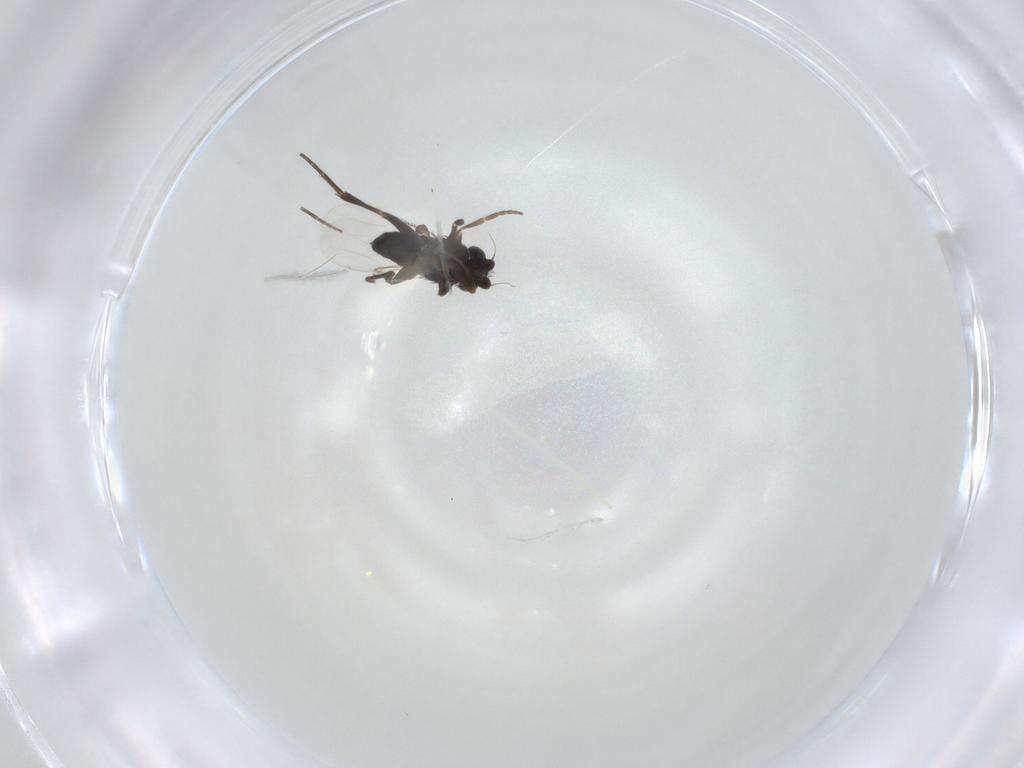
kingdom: Animalia
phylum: Arthropoda
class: Insecta
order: Diptera
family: Phoridae
